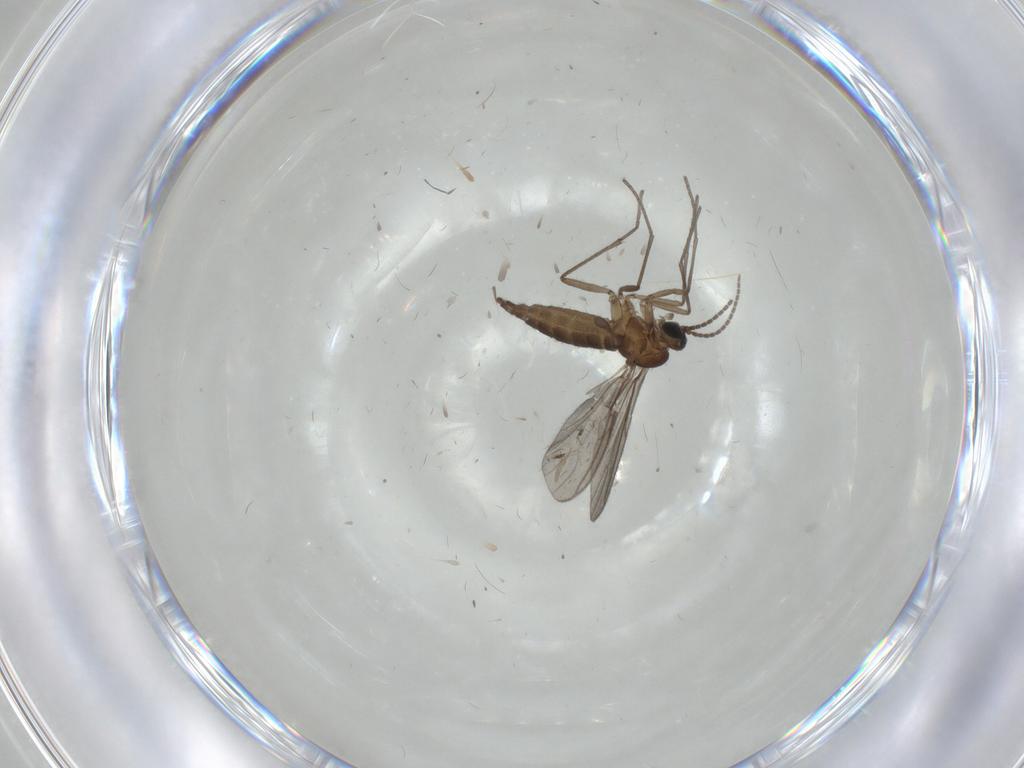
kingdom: Animalia
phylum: Arthropoda
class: Insecta
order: Diptera
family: Sciaridae
